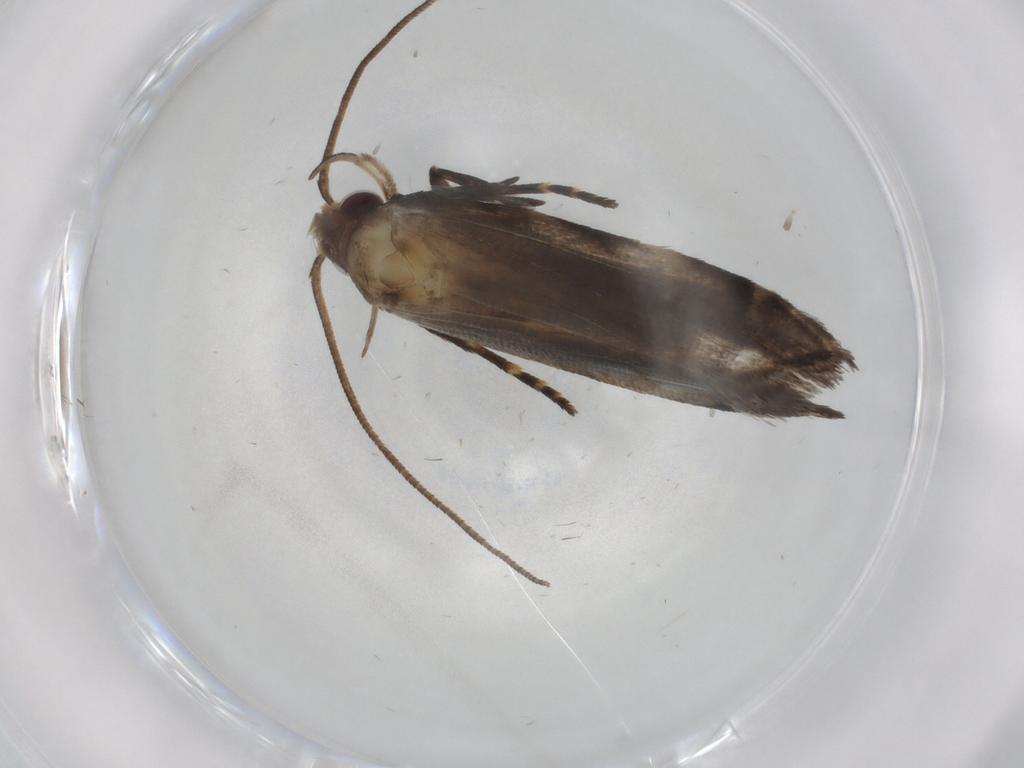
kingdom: Animalia
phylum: Arthropoda
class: Insecta
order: Lepidoptera
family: Gelechiidae
